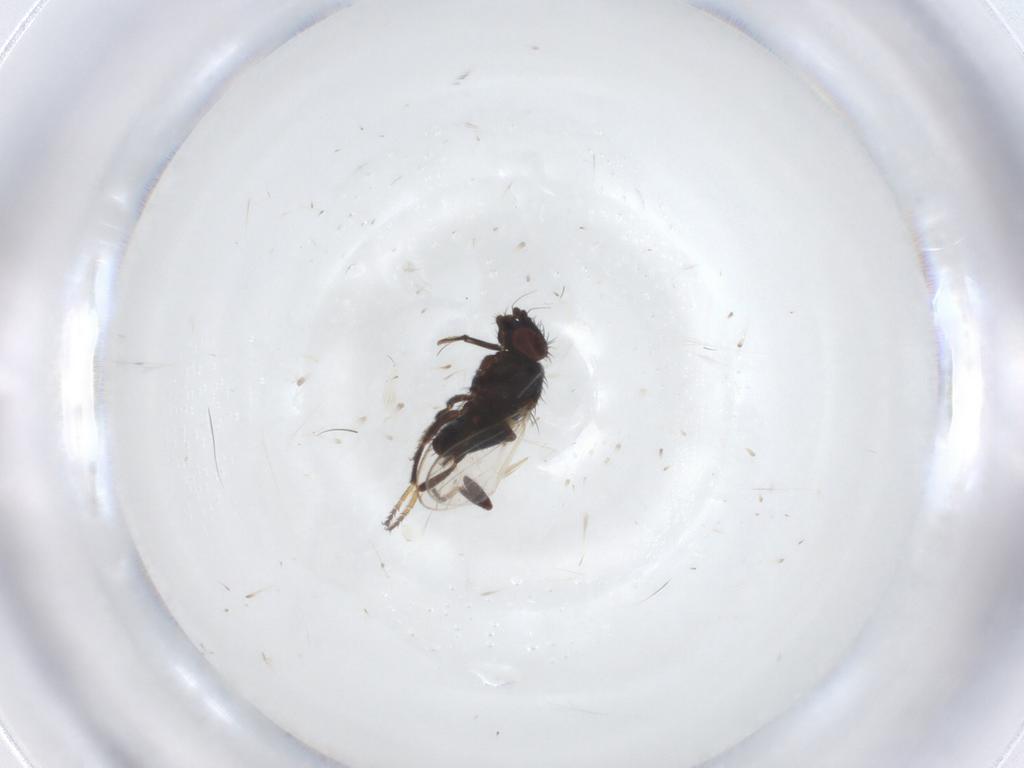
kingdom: Animalia
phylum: Arthropoda
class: Insecta
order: Diptera
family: Milichiidae
